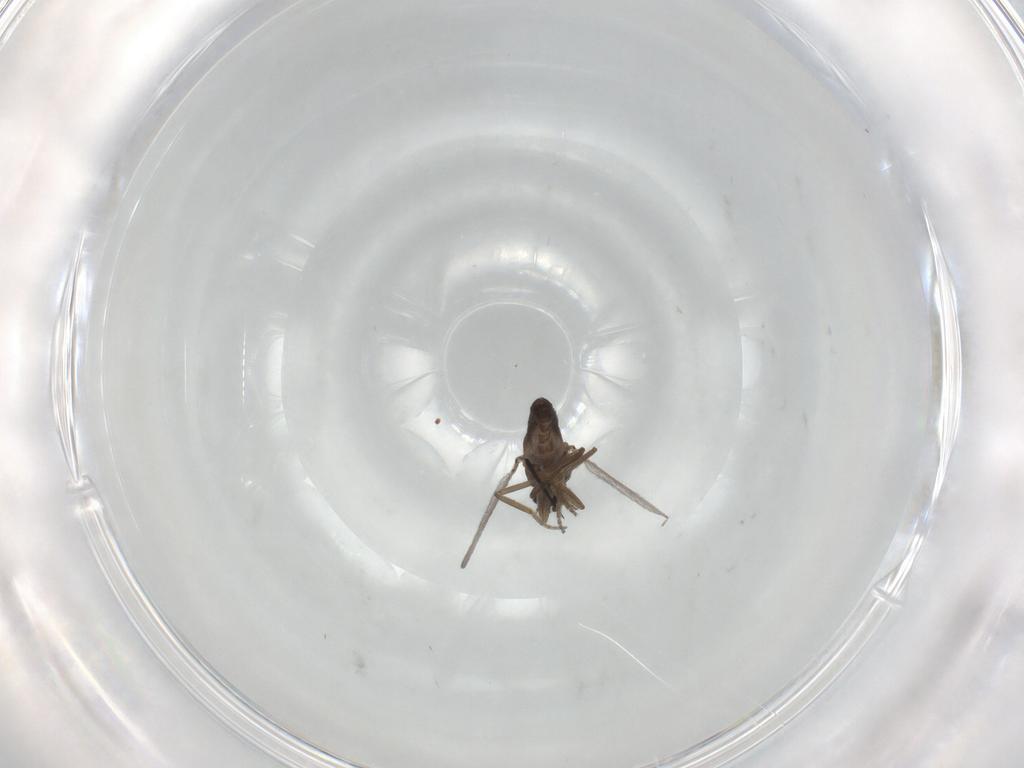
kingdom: Animalia
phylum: Arthropoda
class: Insecta
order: Diptera
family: Ceratopogonidae
